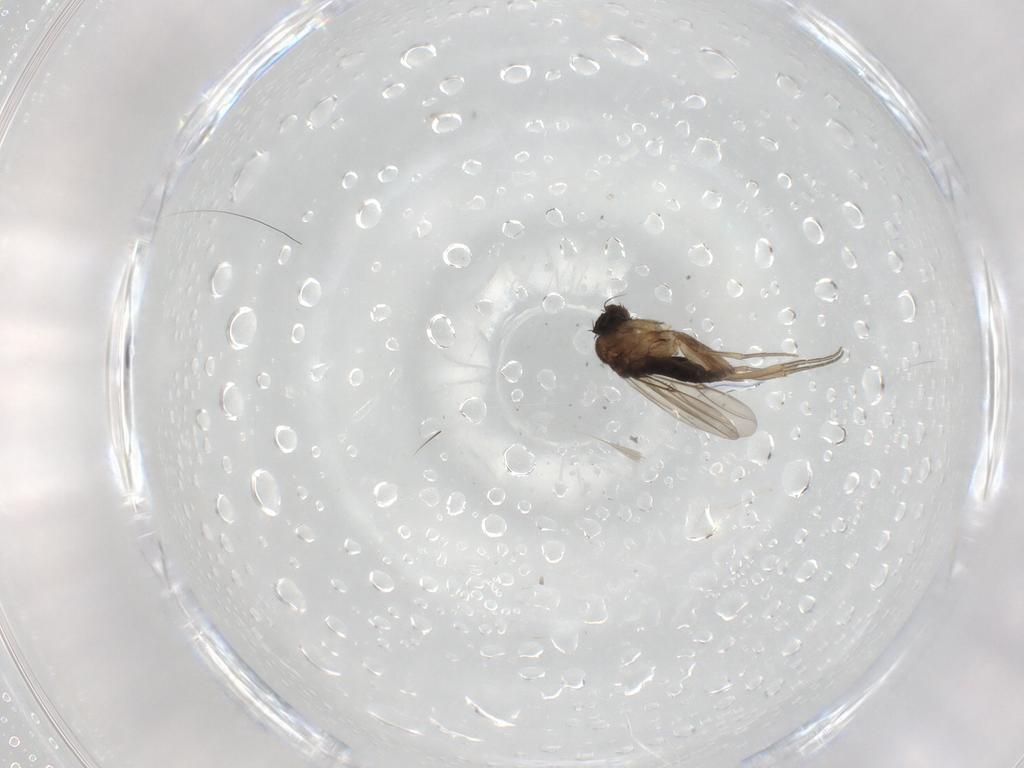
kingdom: Animalia
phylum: Arthropoda
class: Insecta
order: Diptera
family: Phoridae
